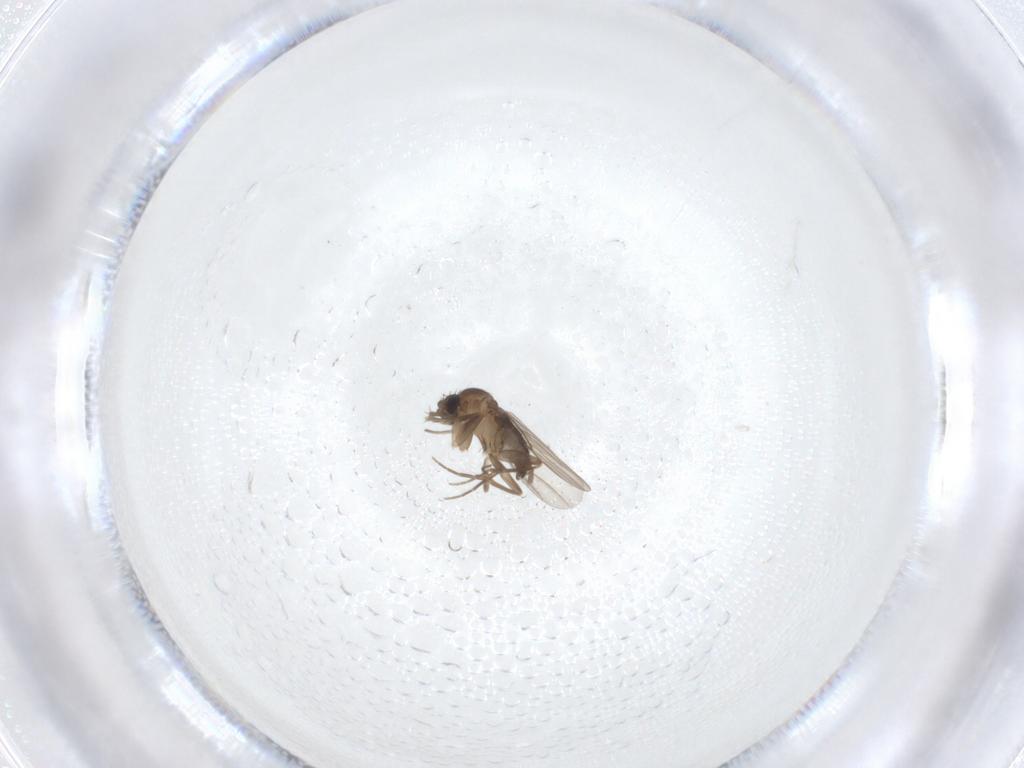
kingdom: Animalia
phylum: Arthropoda
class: Insecta
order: Diptera
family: Phoridae
